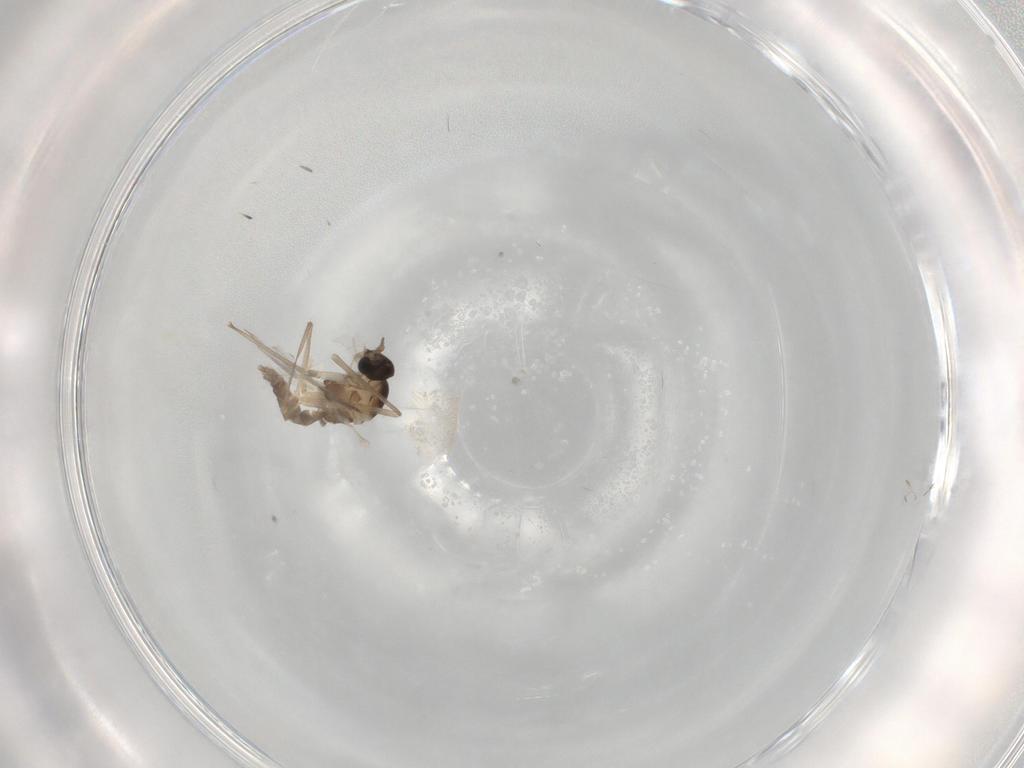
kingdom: Animalia
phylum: Arthropoda
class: Insecta
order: Diptera
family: Cecidomyiidae
